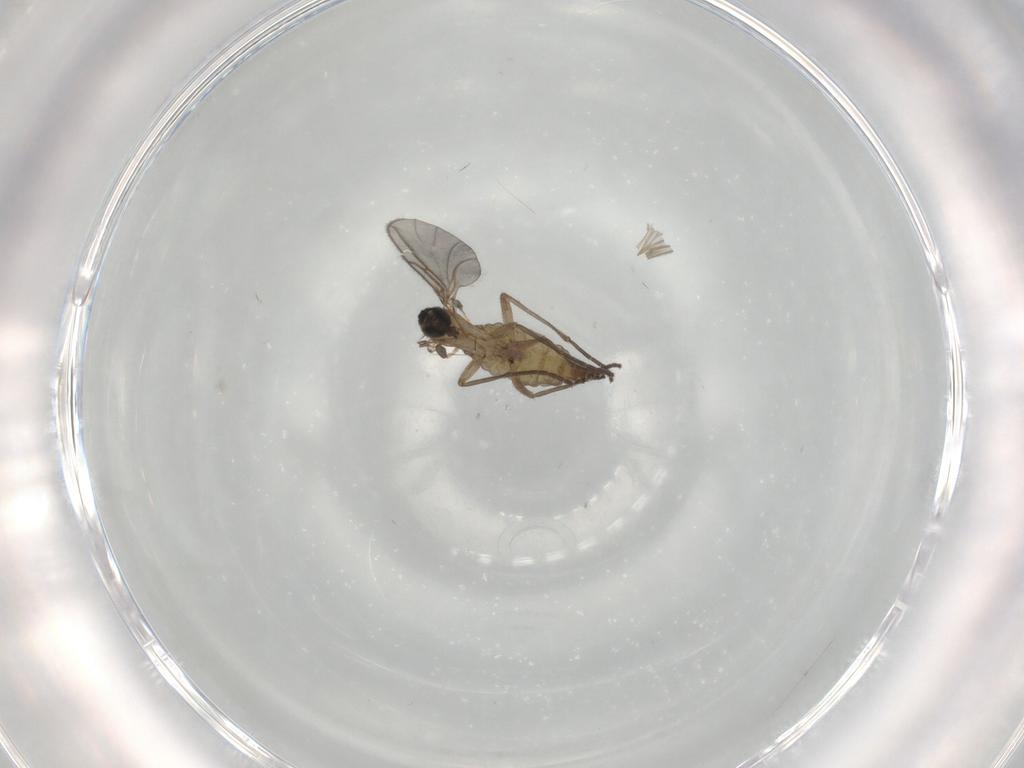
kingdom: Animalia
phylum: Arthropoda
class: Insecta
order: Diptera
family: Sciaridae
